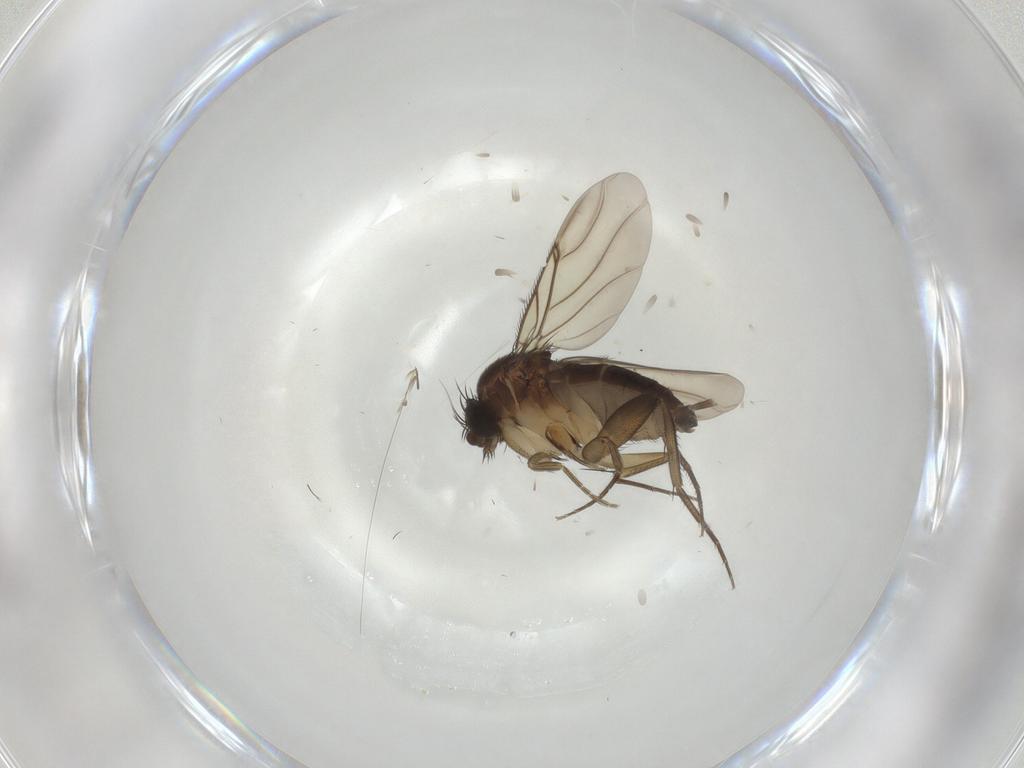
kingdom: Animalia
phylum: Arthropoda
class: Insecta
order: Diptera
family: Phoridae
